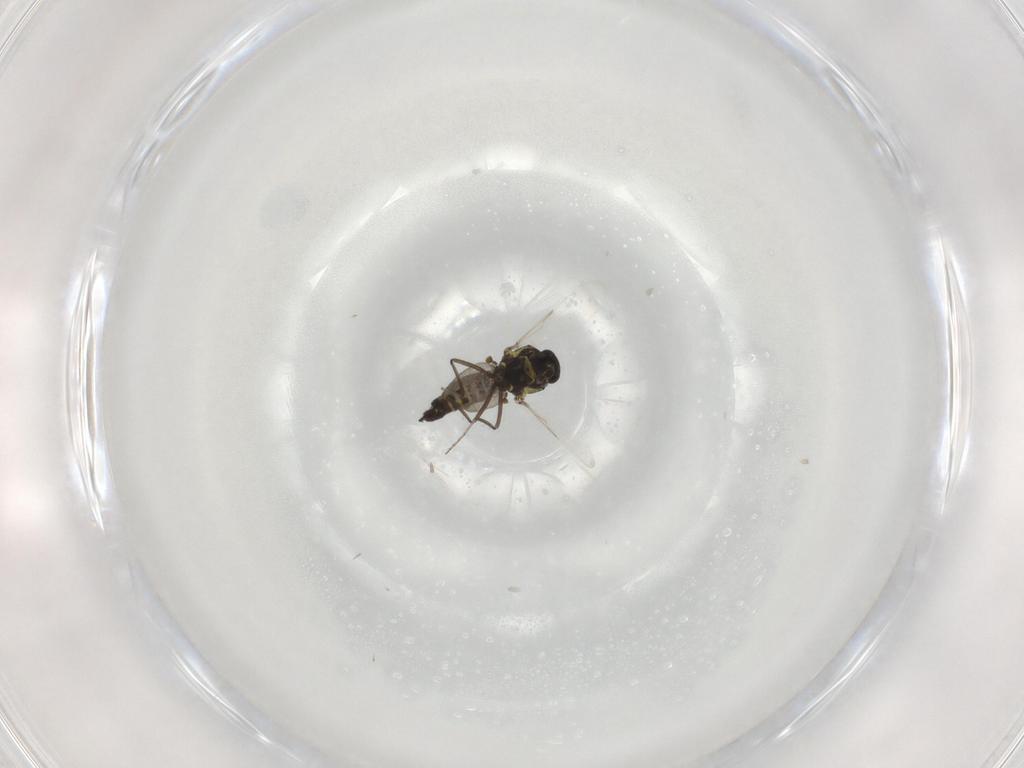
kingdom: Animalia
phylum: Arthropoda
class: Insecta
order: Diptera
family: Ceratopogonidae
